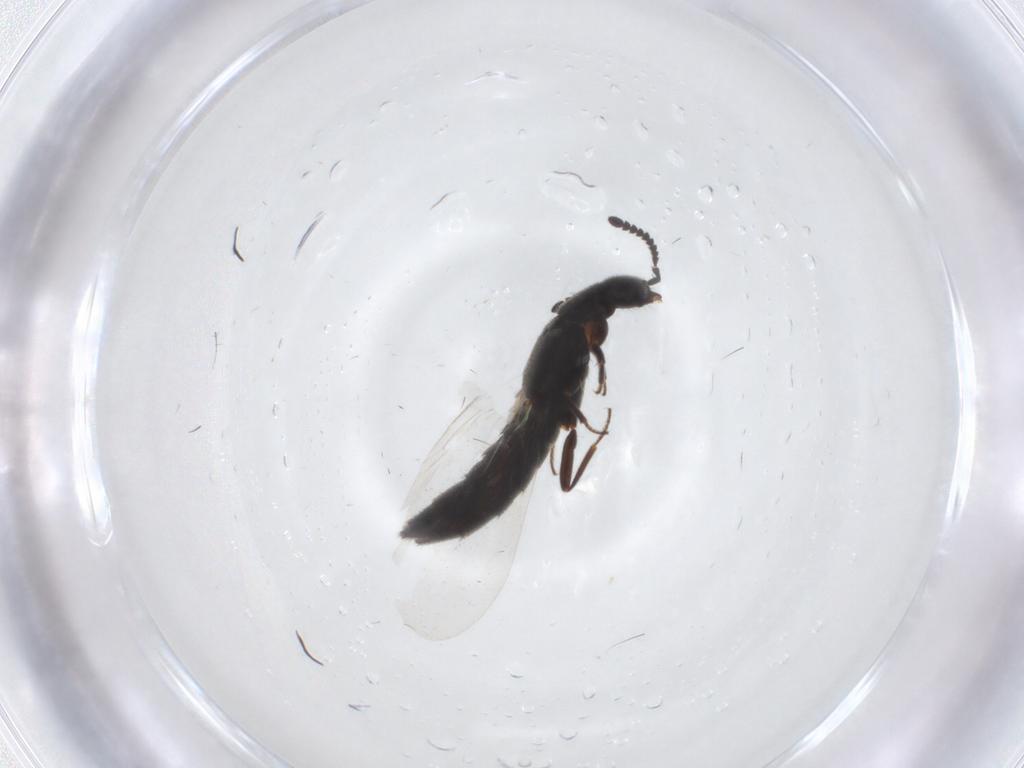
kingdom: Animalia
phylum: Arthropoda
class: Insecta
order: Coleoptera
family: Staphylinidae
